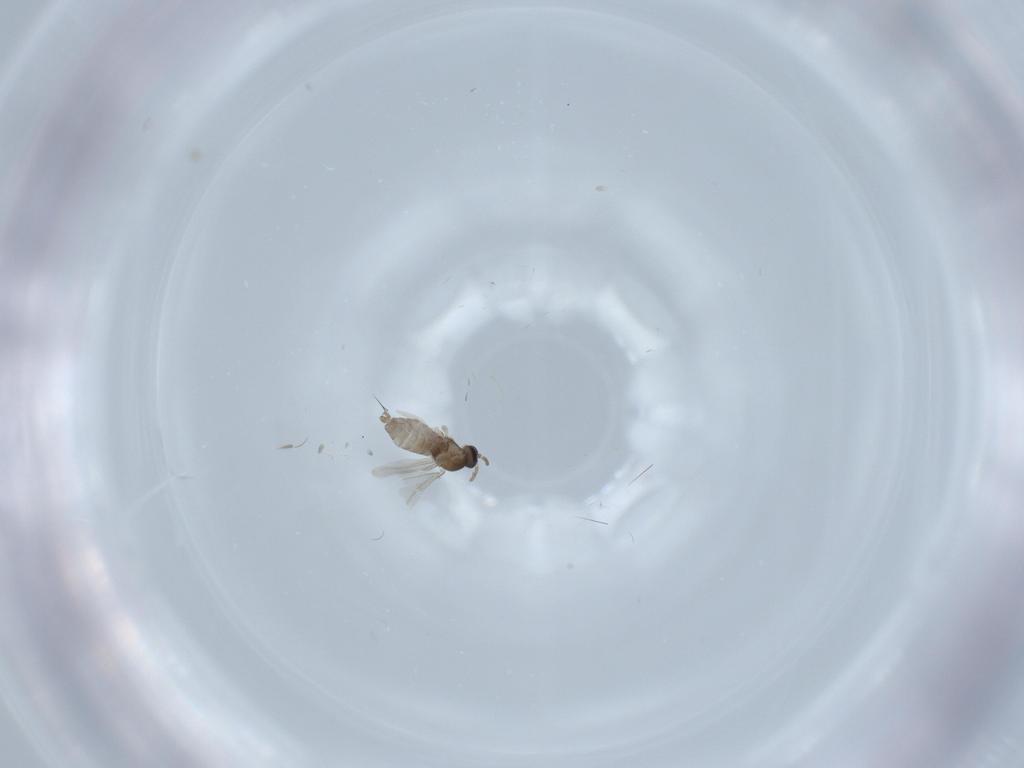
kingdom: Animalia
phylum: Arthropoda
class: Insecta
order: Diptera
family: Cecidomyiidae
